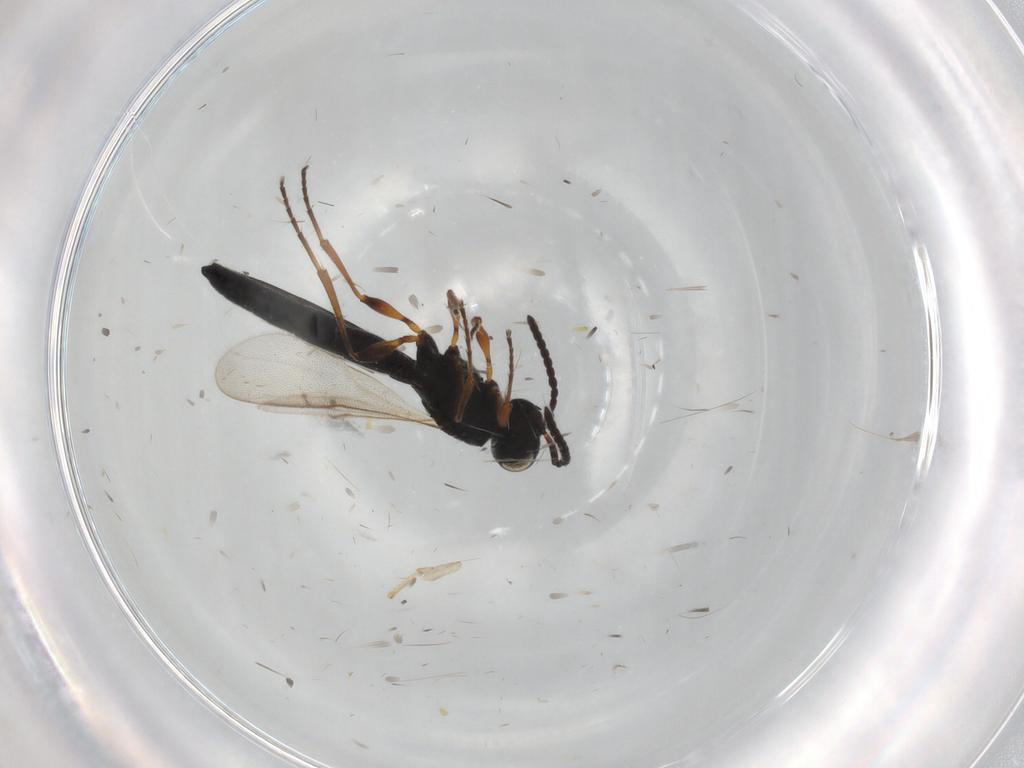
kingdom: Animalia
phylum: Arthropoda
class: Insecta
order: Hymenoptera
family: Scelionidae
